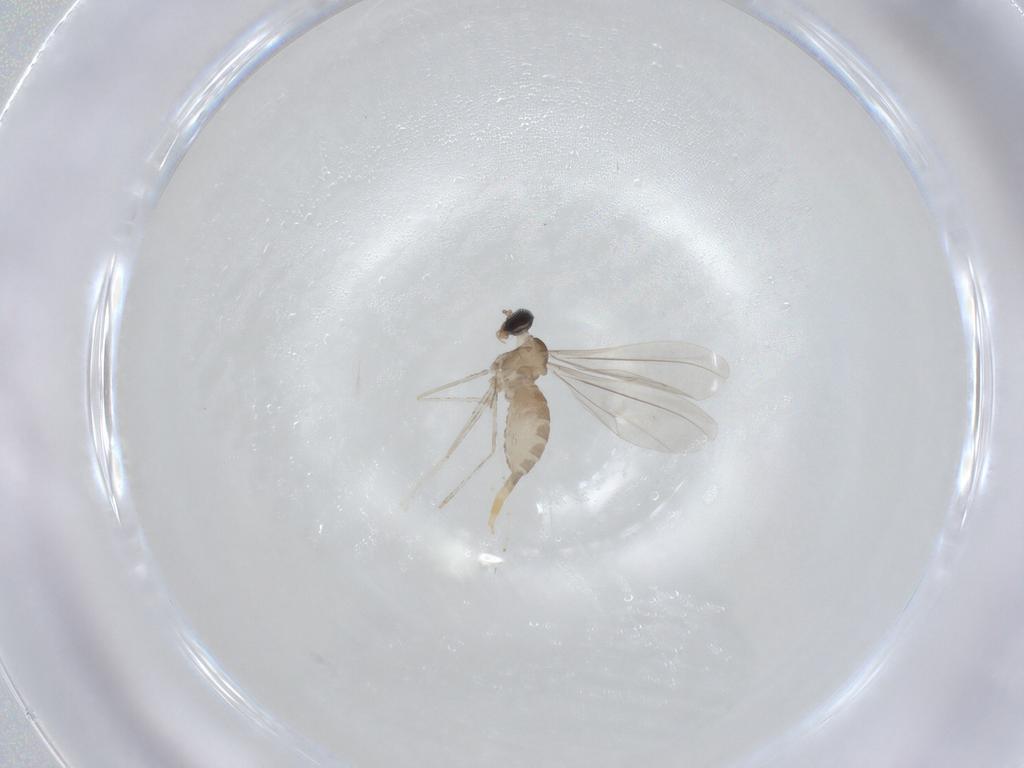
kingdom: Animalia
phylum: Arthropoda
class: Insecta
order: Diptera
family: Cecidomyiidae
